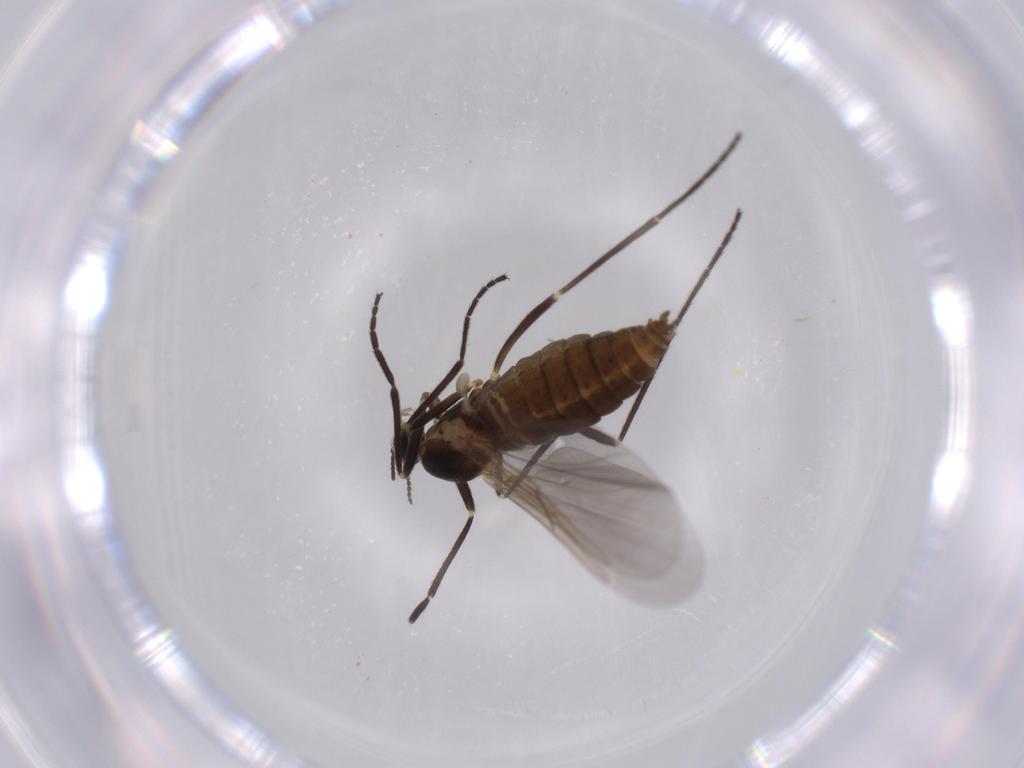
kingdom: Animalia
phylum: Arthropoda
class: Insecta
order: Diptera
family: Cecidomyiidae
